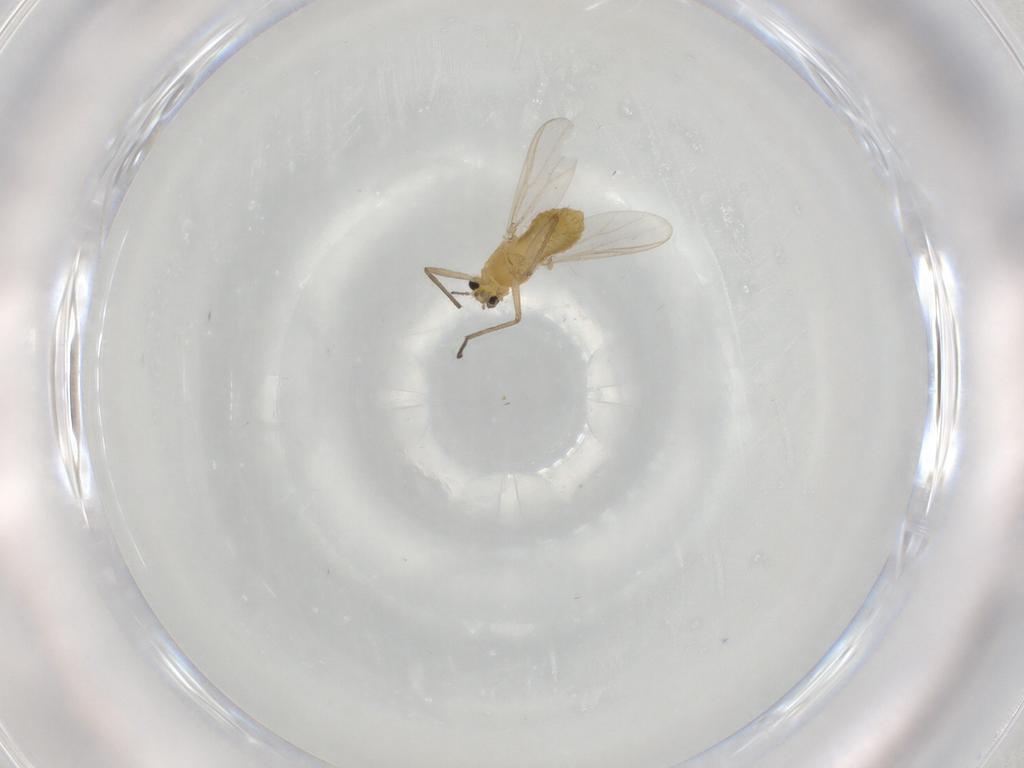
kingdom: Animalia
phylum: Arthropoda
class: Insecta
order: Diptera
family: Chironomidae
